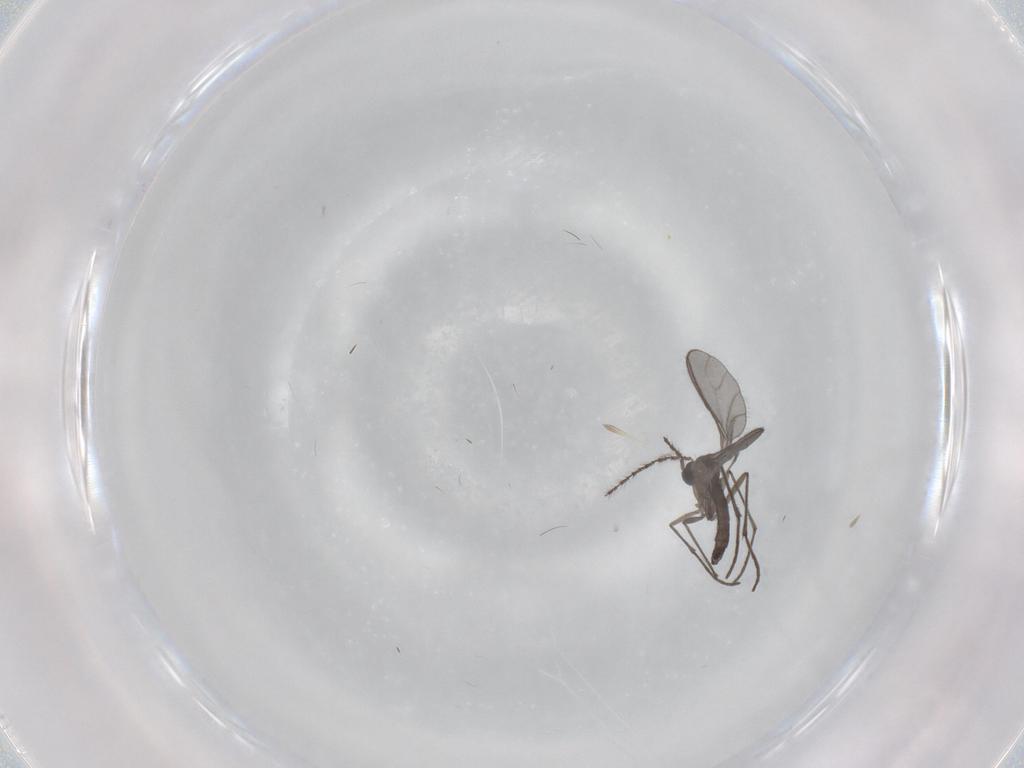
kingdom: Animalia
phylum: Arthropoda
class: Insecta
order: Diptera
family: Sciaridae
